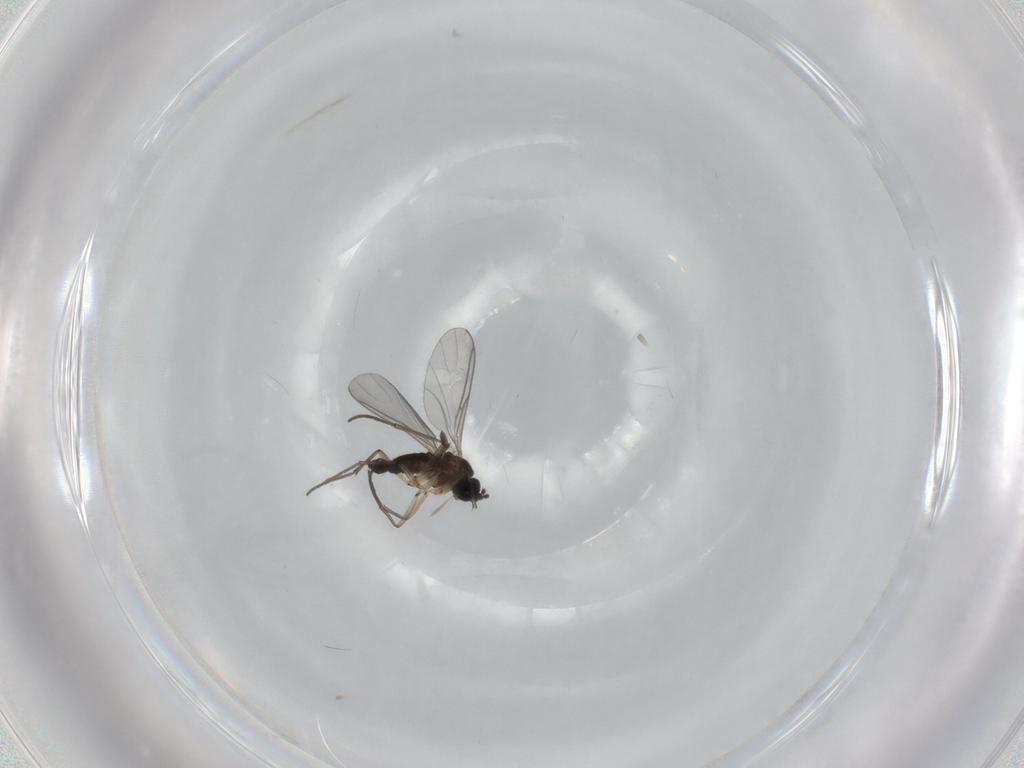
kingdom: Animalia
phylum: Arthropoda
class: Insecta
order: Diptera
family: Sciaridae
